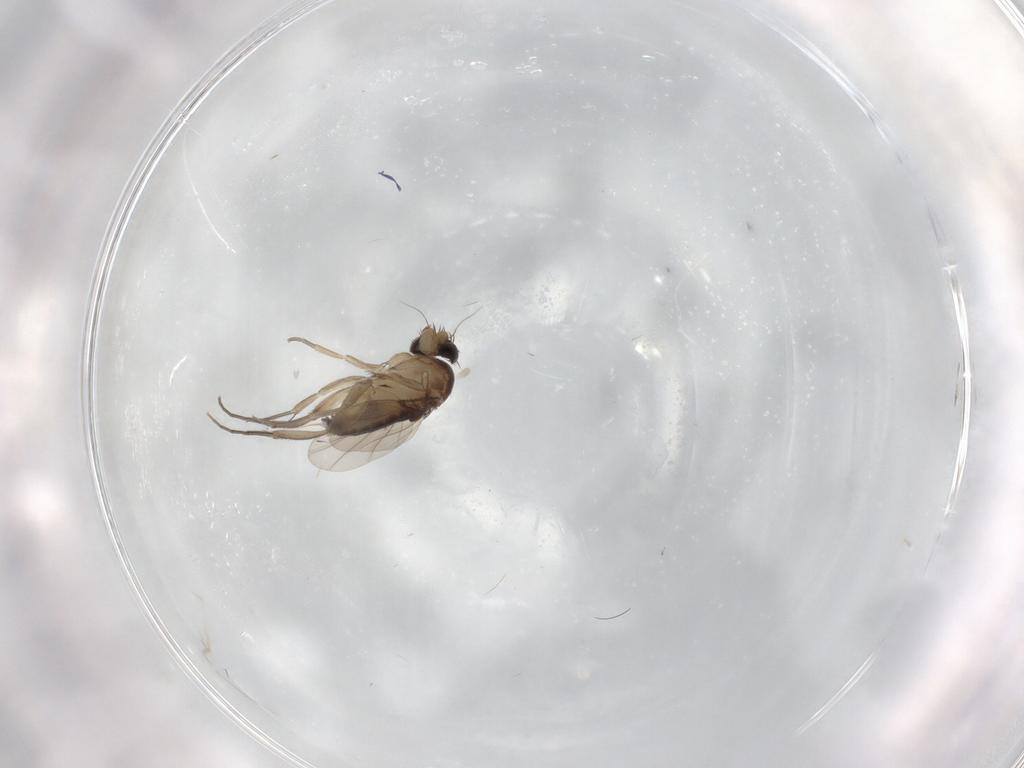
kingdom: Animalia
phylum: Arthropoda
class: Insecta
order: Diptera
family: Phoridae
